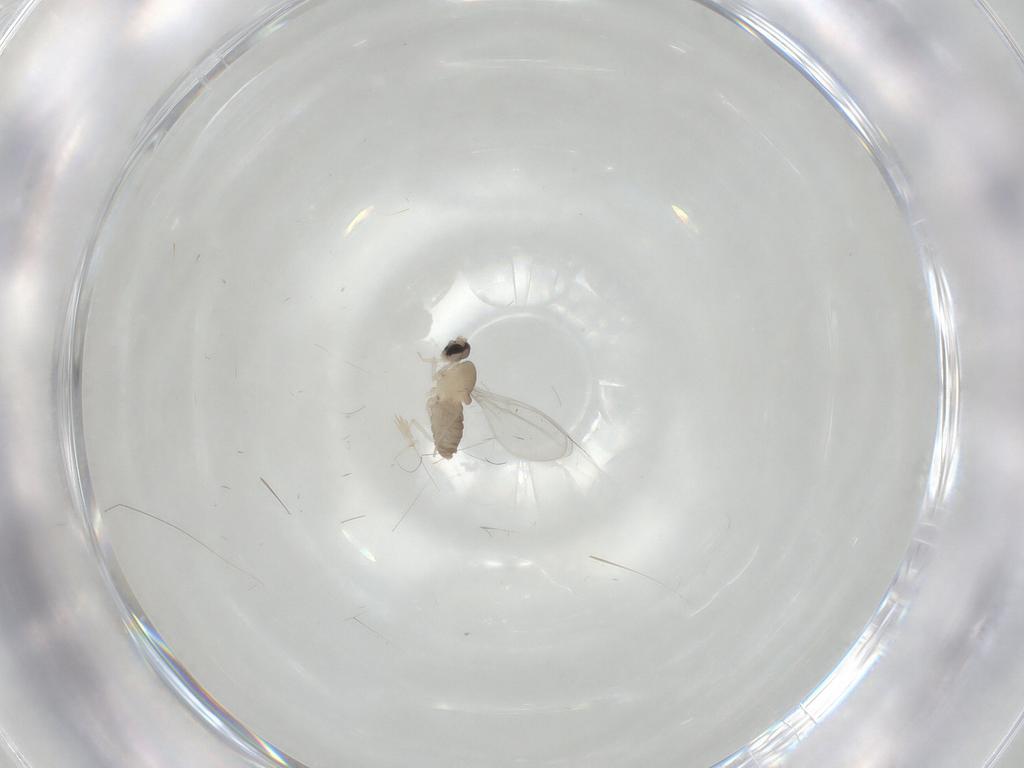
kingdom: Animalia
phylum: Arthropoda
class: Insecta
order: Diptera
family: Cecidomyiidae
